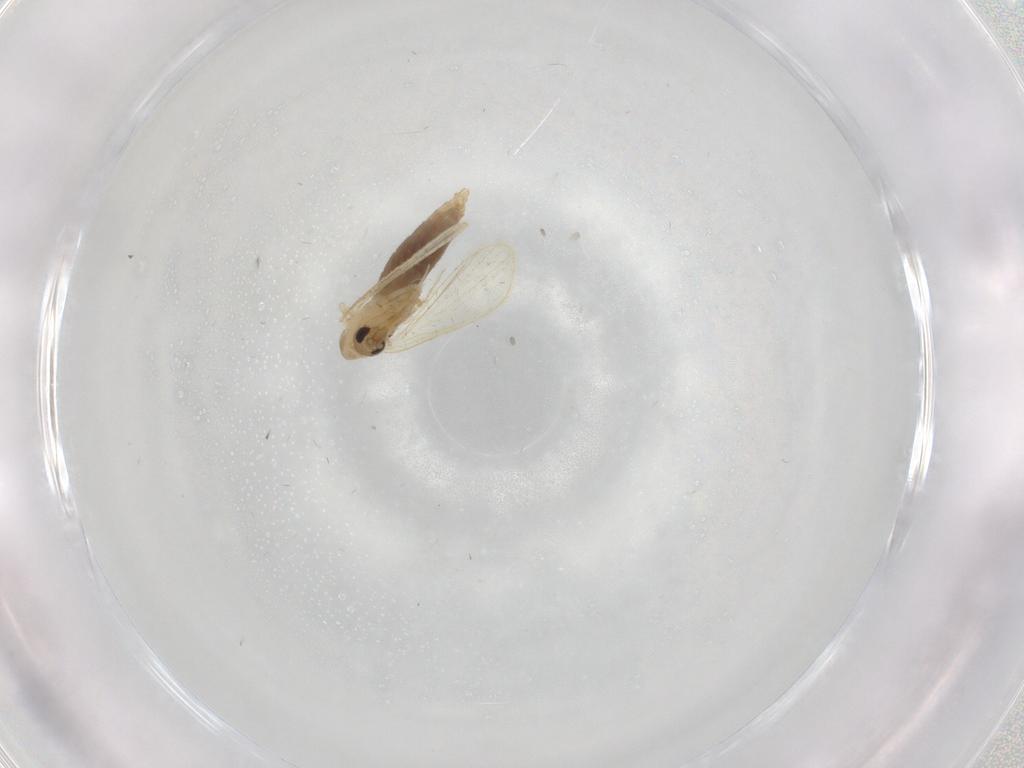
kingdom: Animalia
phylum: Arthropoda
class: Insecta
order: Diptera
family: Psychodidae
